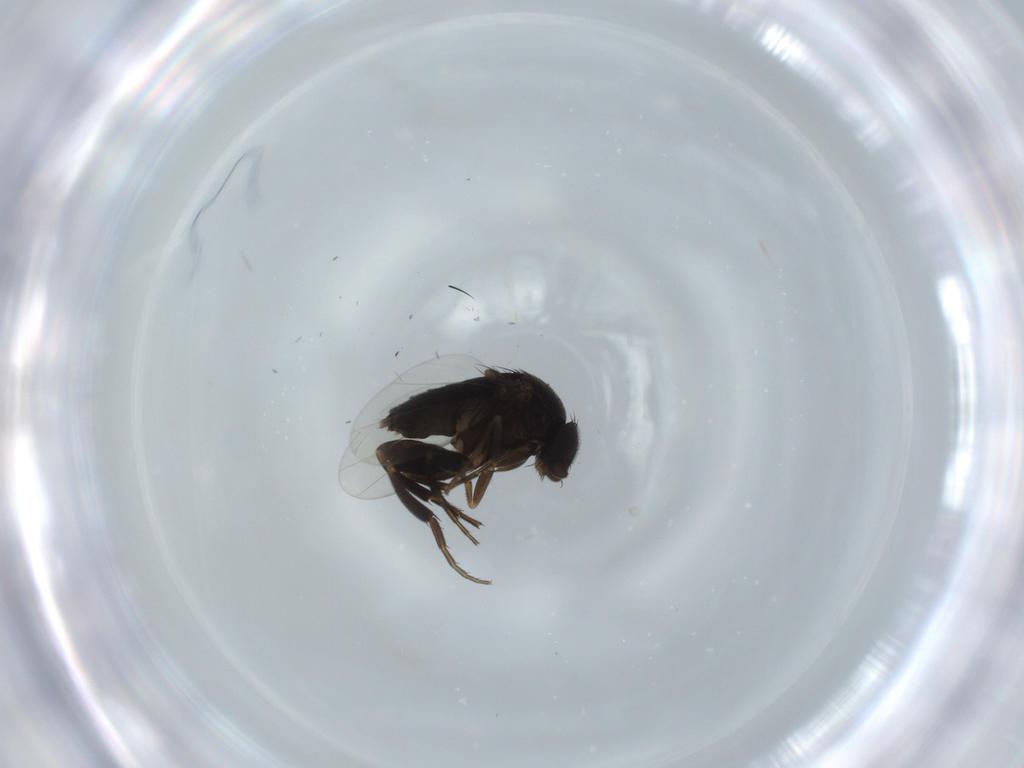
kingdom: Animalia
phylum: Arthropoda
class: Insecta
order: Diptera
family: Phoridae
